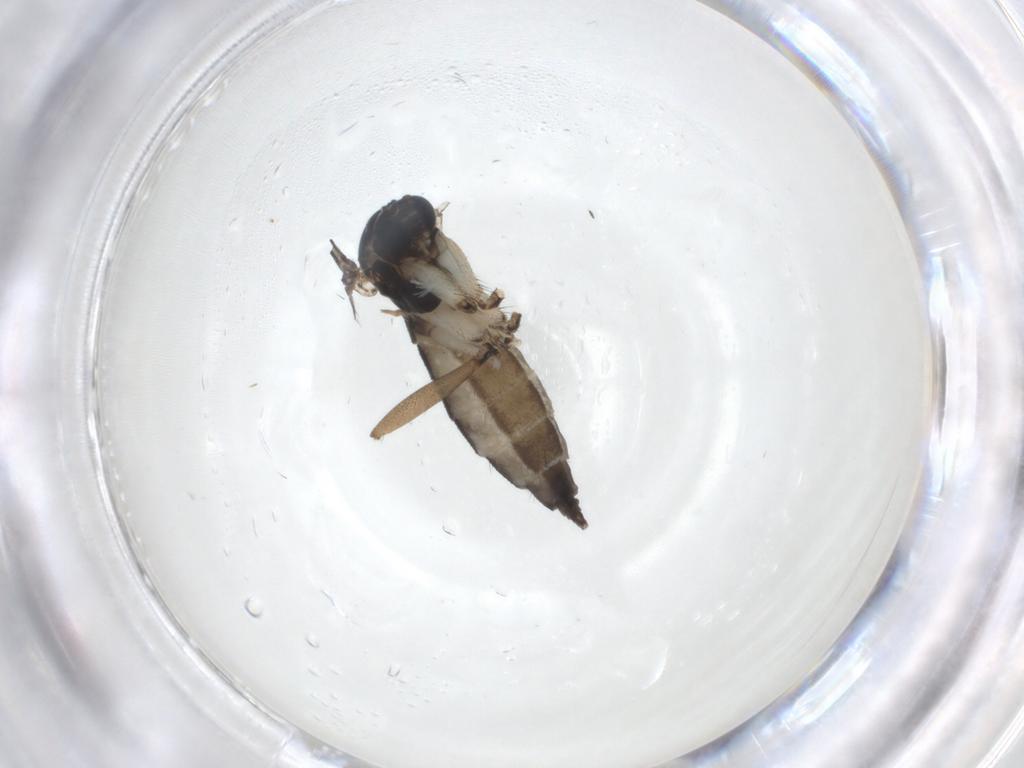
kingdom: Animalia
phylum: Arthropoda
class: Insecta
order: Diptera
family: Sciaridae
